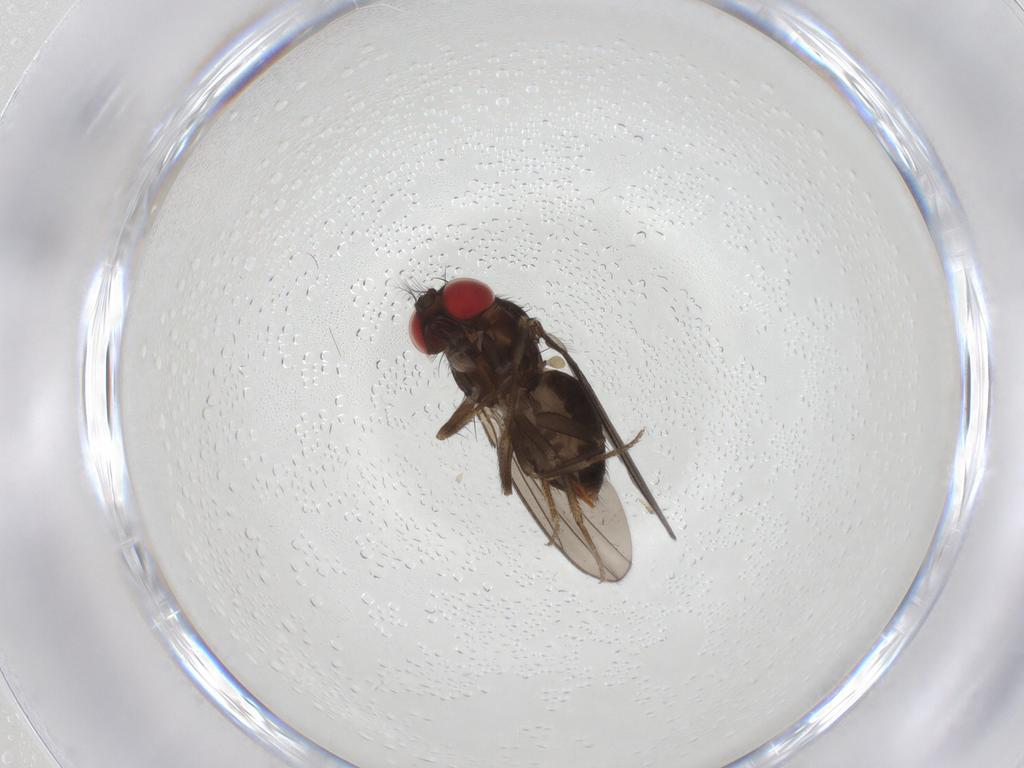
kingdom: Animalia
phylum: Arthropoda
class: Insecta
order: Diptera
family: Drosophilidae
